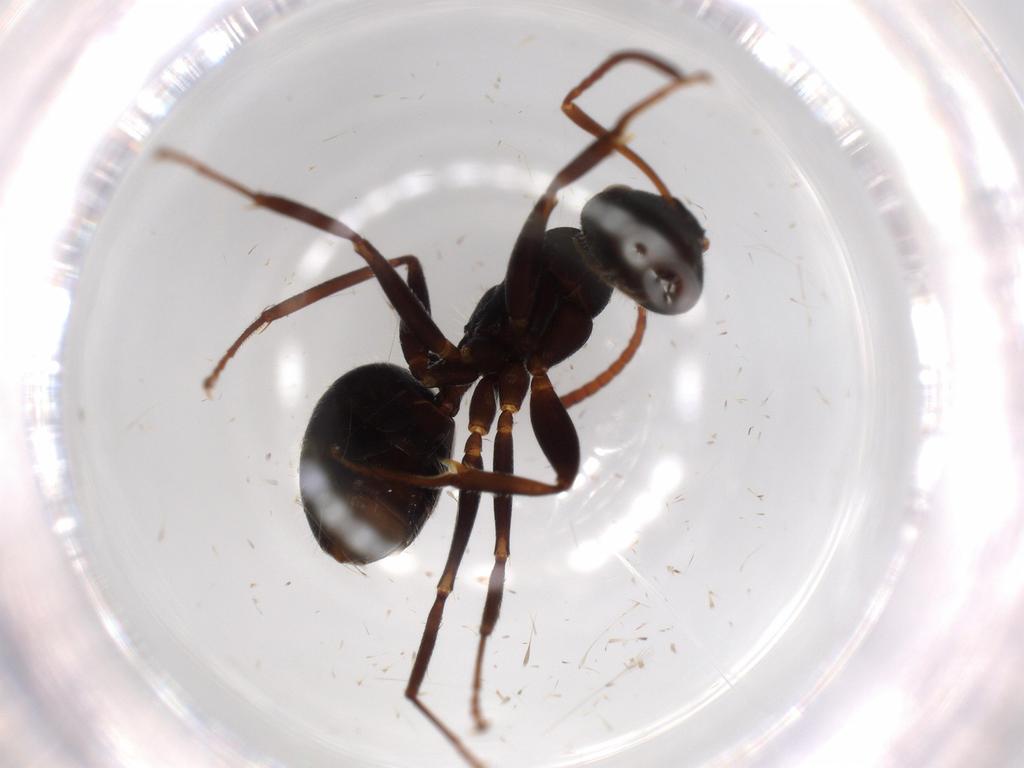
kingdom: Animalia
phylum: Arthropoda
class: Insecta
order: Hymenoptera
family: Formicidae
